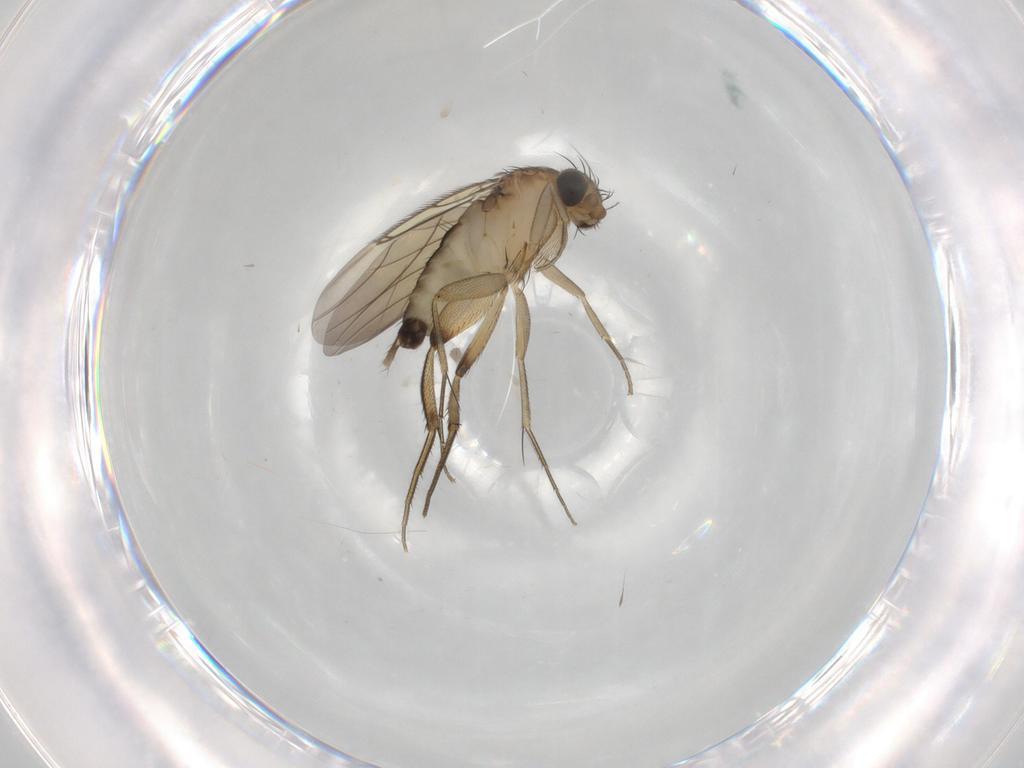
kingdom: Animalia
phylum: Arthropoda
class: Insecta
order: Diptera
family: Phoridae
